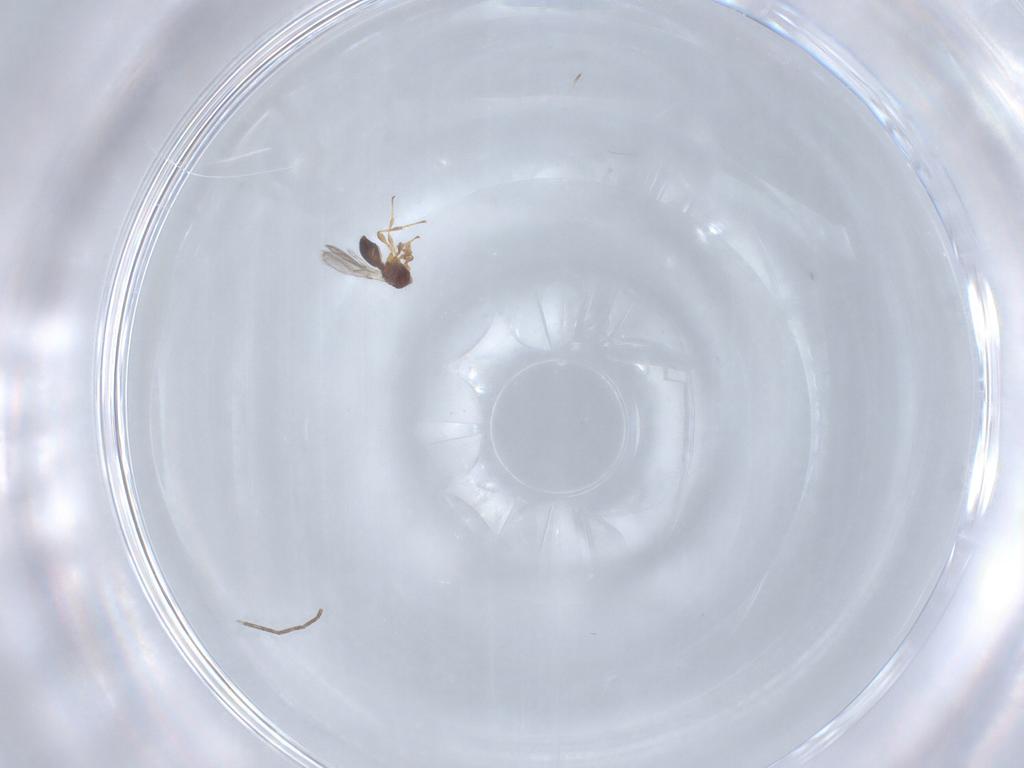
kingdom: Animalia
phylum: Arthropoda
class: Insecta
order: Hymenoptera
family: Diapriidae
